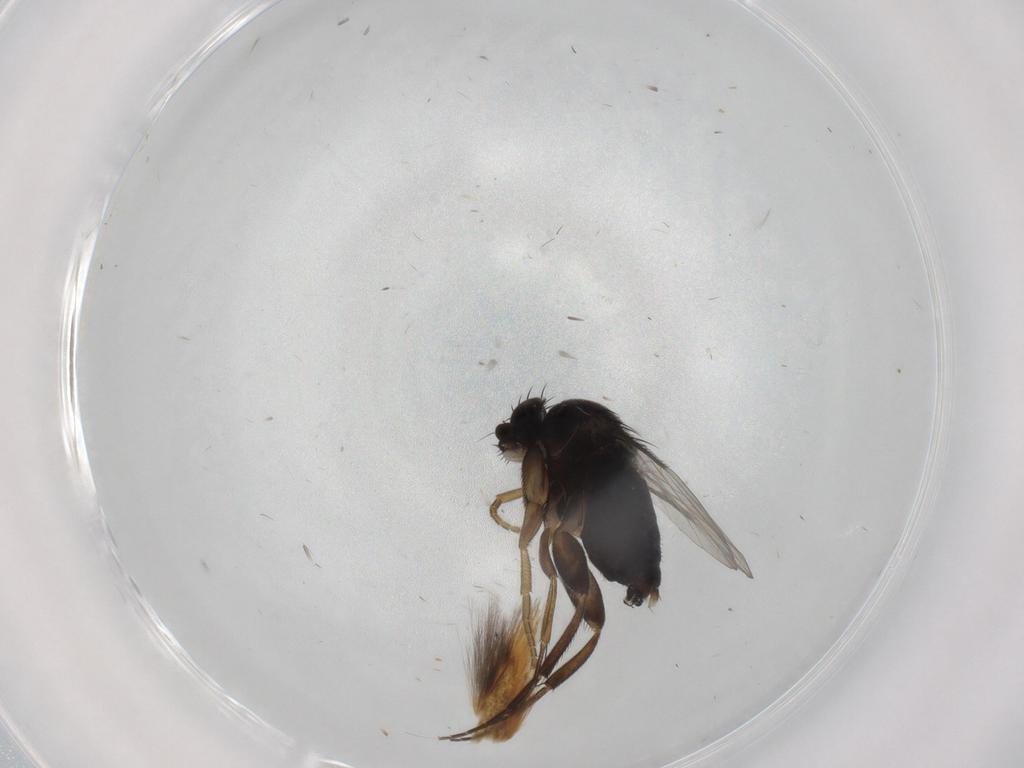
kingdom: Animalia
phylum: Arthropoda
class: Insecta
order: Diptera
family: Phoridae
